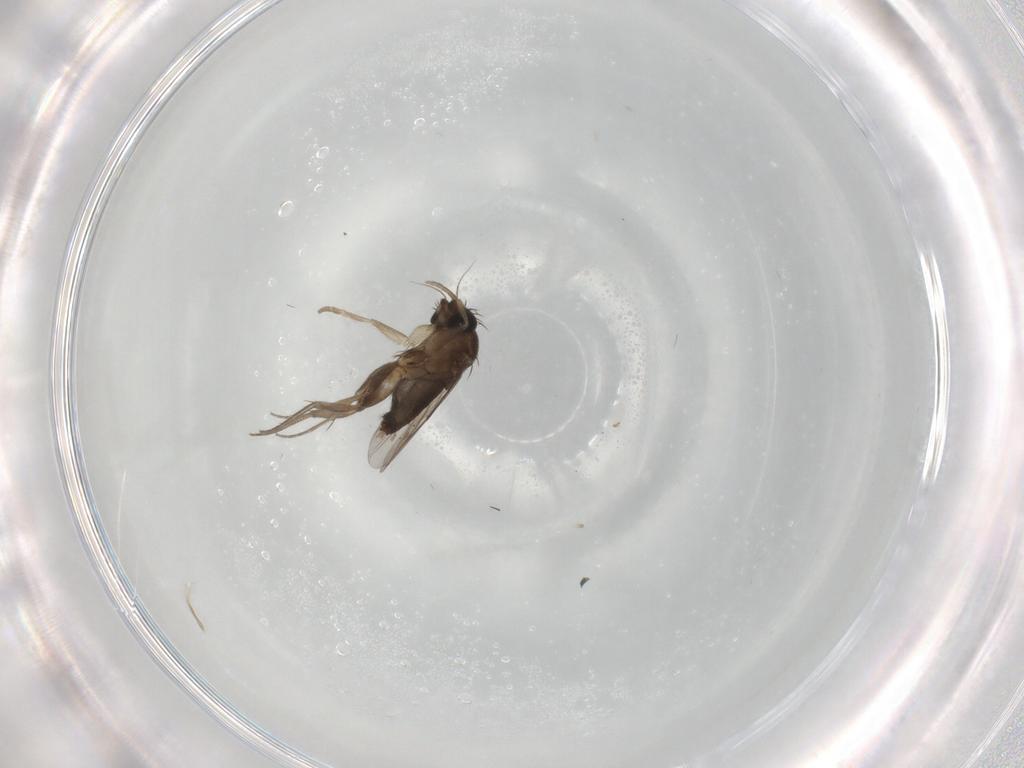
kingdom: Animalia
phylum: Arthropoda
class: Insecta
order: Diptera
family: Phoridae
